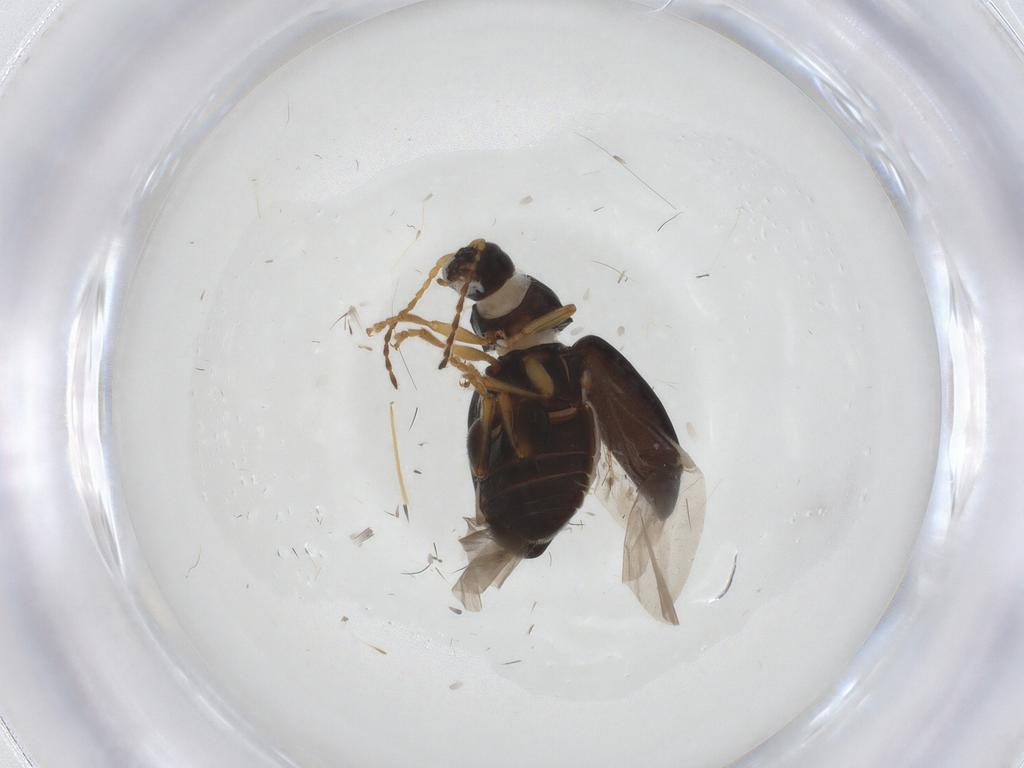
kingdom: Animalia
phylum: Arthropoda
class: Insecta
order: Coleoptera
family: Chrysomelidae
